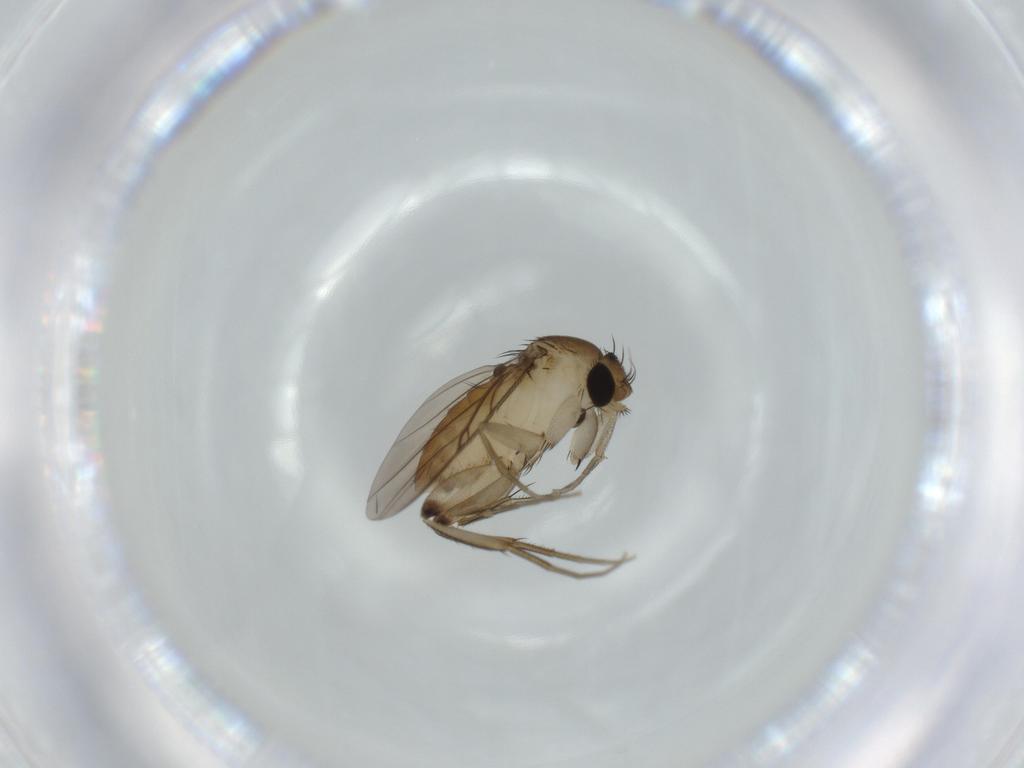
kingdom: Animalia
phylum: Arthropoda
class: Insecta
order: Diptera
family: Phoridae
